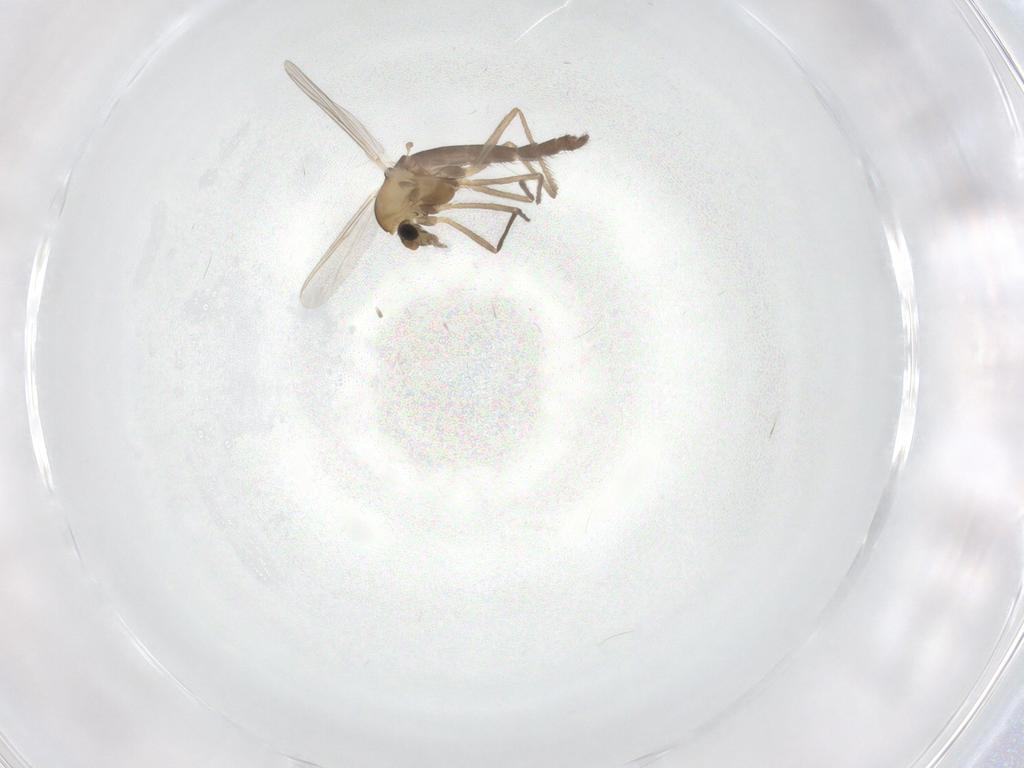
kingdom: Animalia
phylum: Arthropoda
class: Insecta
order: Diptera
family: Chironomidae
